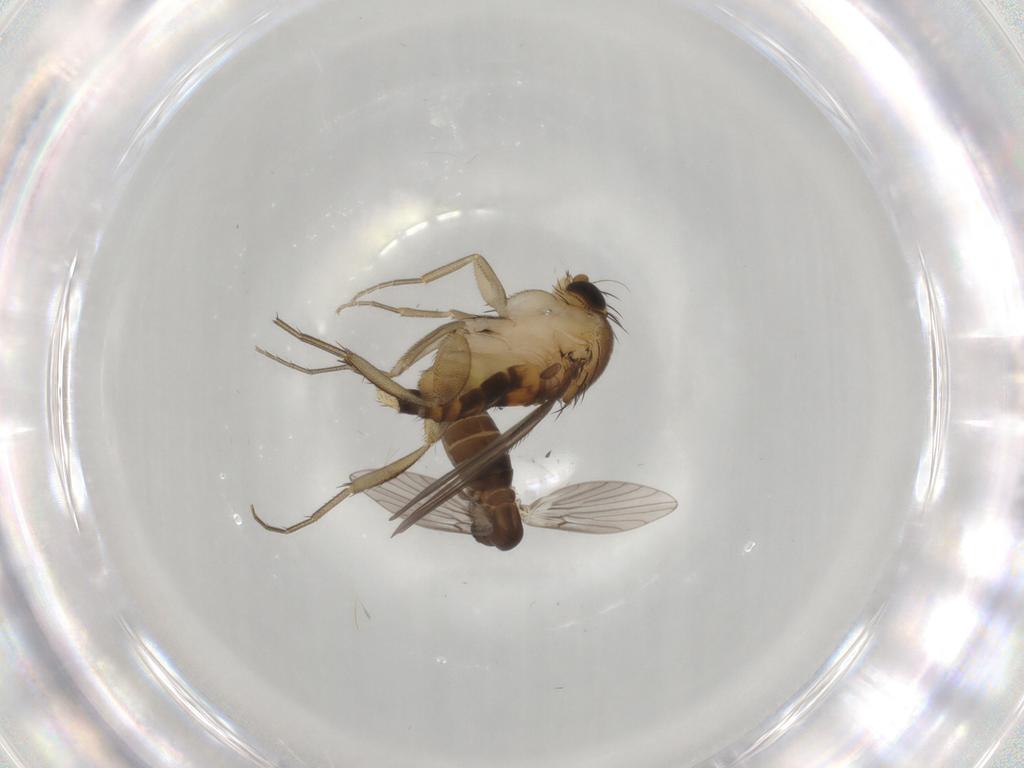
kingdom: Animalia
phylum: Arthropoda
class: Insecta
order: Diptera
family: Phoridae
